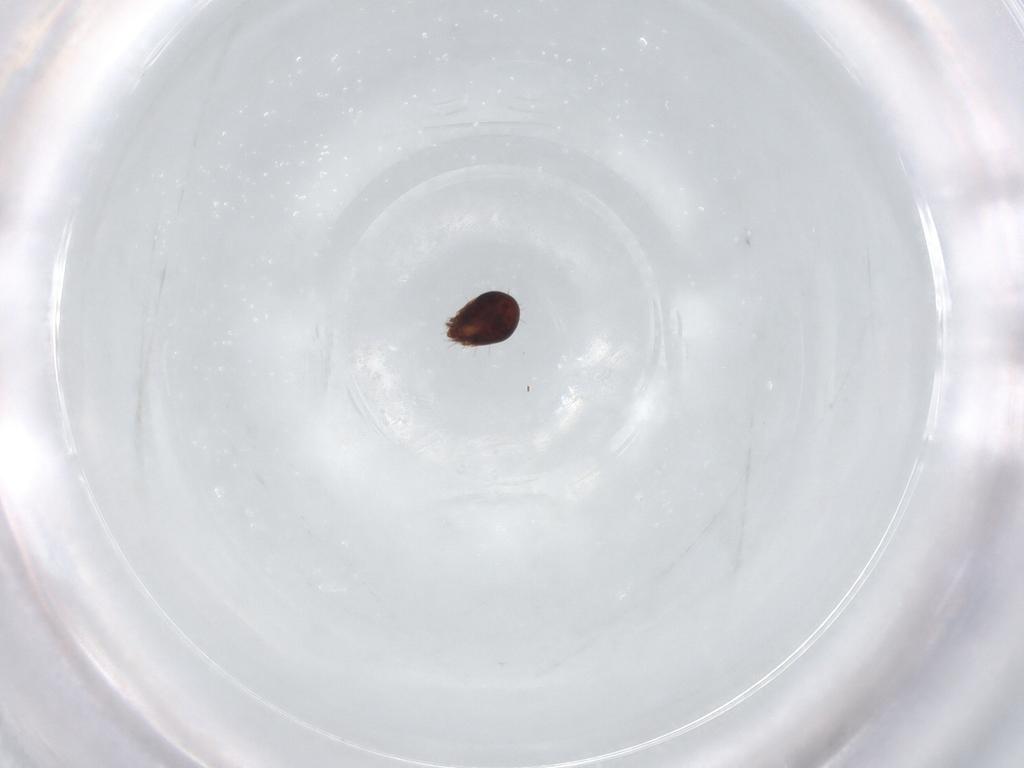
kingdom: Animalia
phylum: Arthropoda
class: Arachnida
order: Sarcoptiformes
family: Humerobatidae
